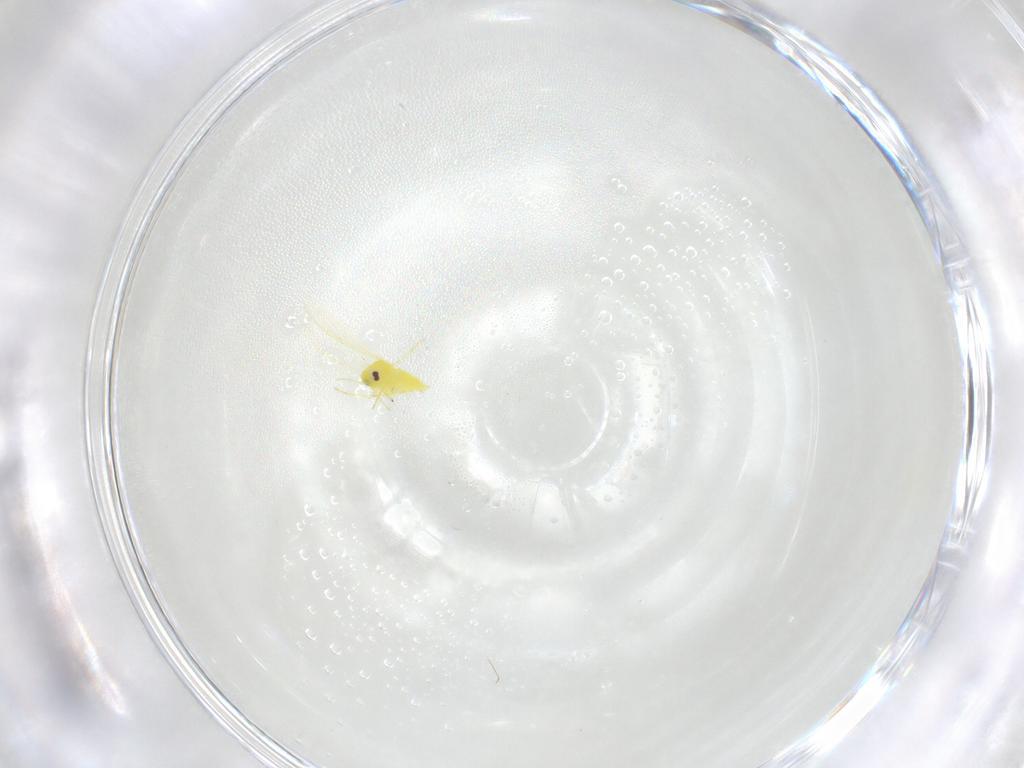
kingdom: Animalia
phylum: Arthropoda
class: Insecta
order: Hemiptera
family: Aleyrodidae
